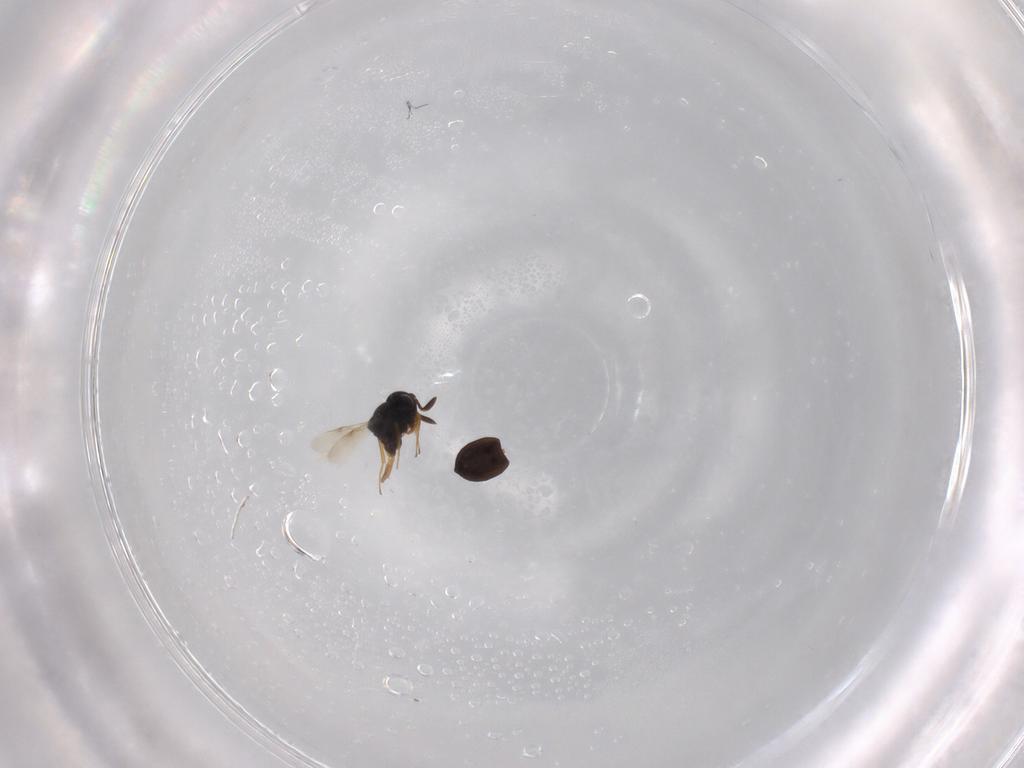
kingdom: Animalia
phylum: Arthropoda
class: Insecta
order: Hymenoptera
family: Scelionidae
